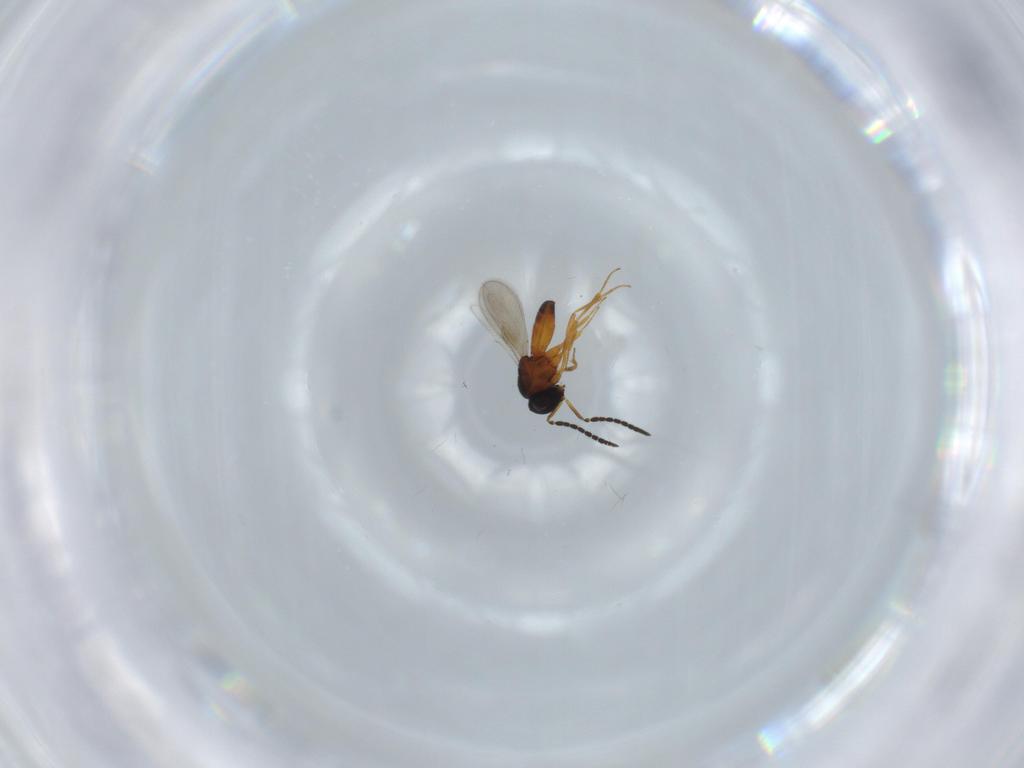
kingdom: Animalia
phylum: Arthropoda
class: Insecta
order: Hymenoptera
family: Scelionidae
